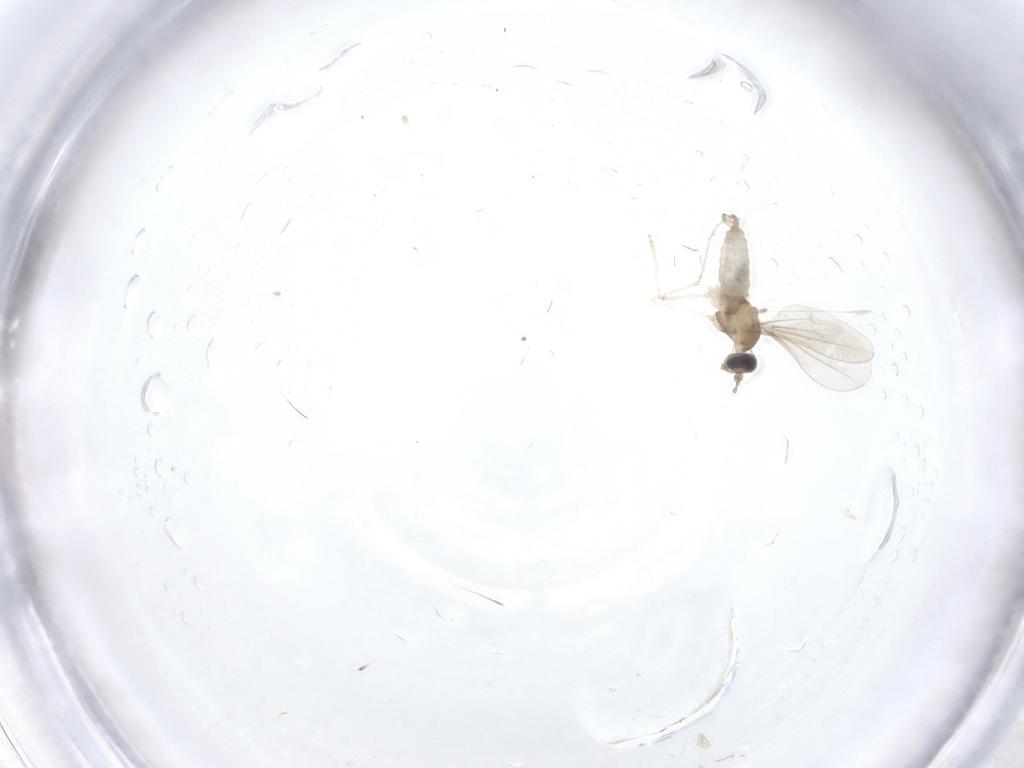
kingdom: Animalia
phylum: Arthropoda
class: Insecta
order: Diptera
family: Cecidomyiidae
